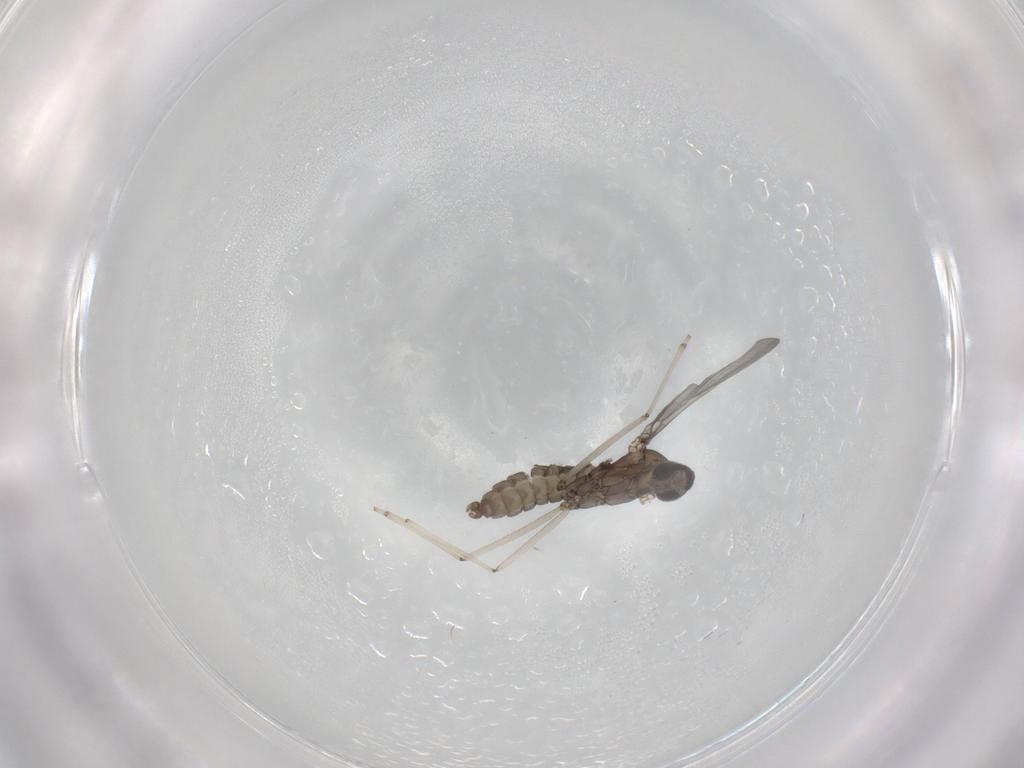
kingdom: Animalia
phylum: Arthropoda
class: Insecta
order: Diptera
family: Cecidomyiidae
